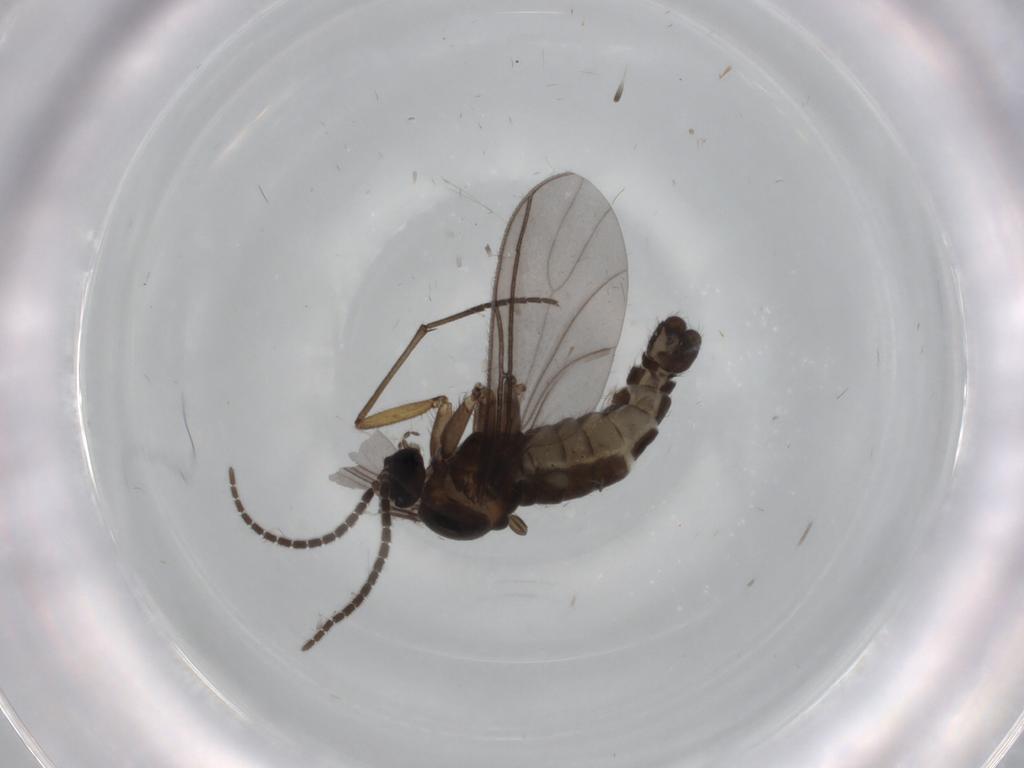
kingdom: Animalia
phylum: Arthropoda
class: Insecta
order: Diptera
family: Sciaridae
